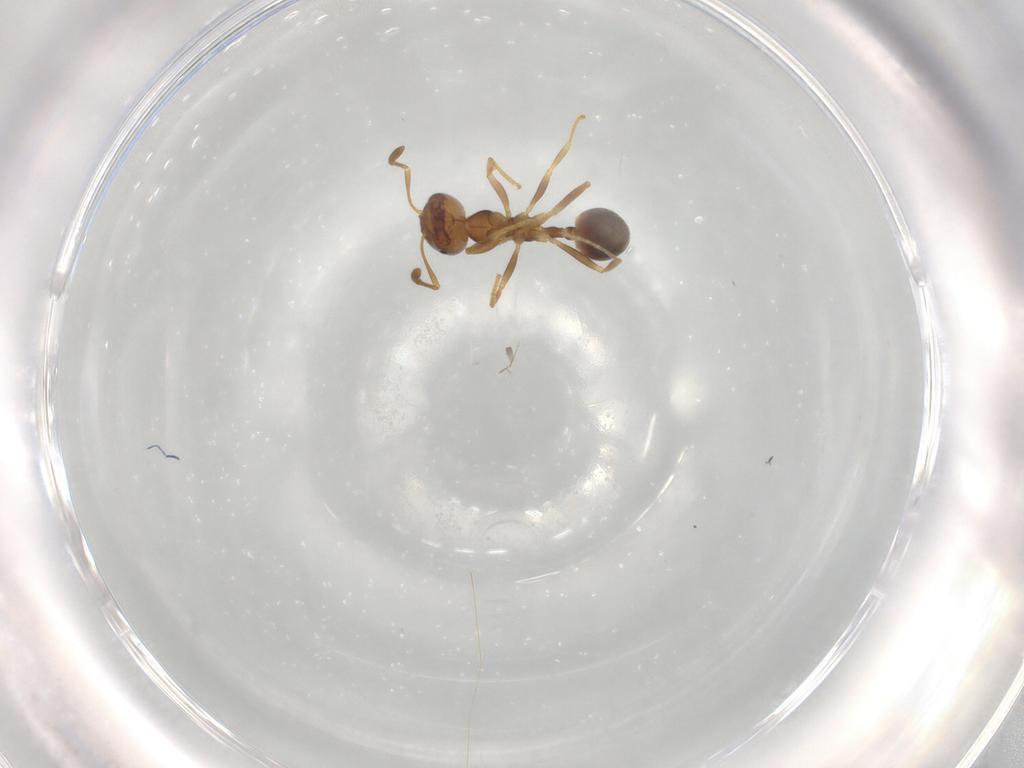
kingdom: Animalia
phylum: Arthropoda
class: Insecta
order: Hymenoptera
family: Formicidae
